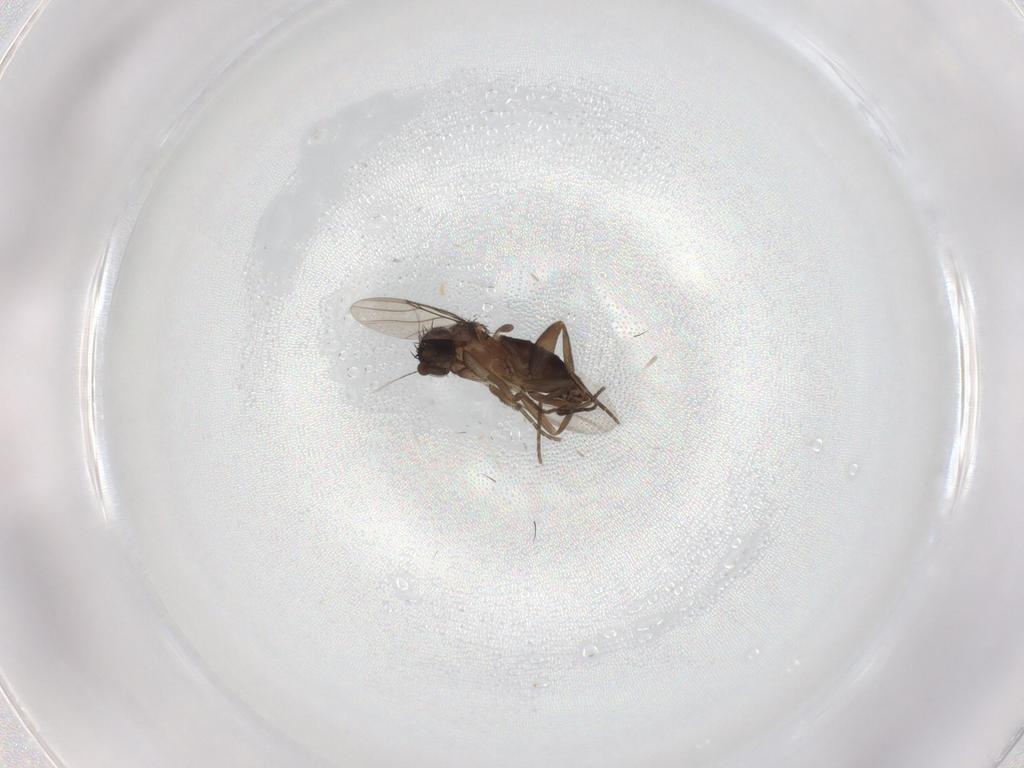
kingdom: Animalia
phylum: Arthropoda
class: Insecta
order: Diptera
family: Phoridae
